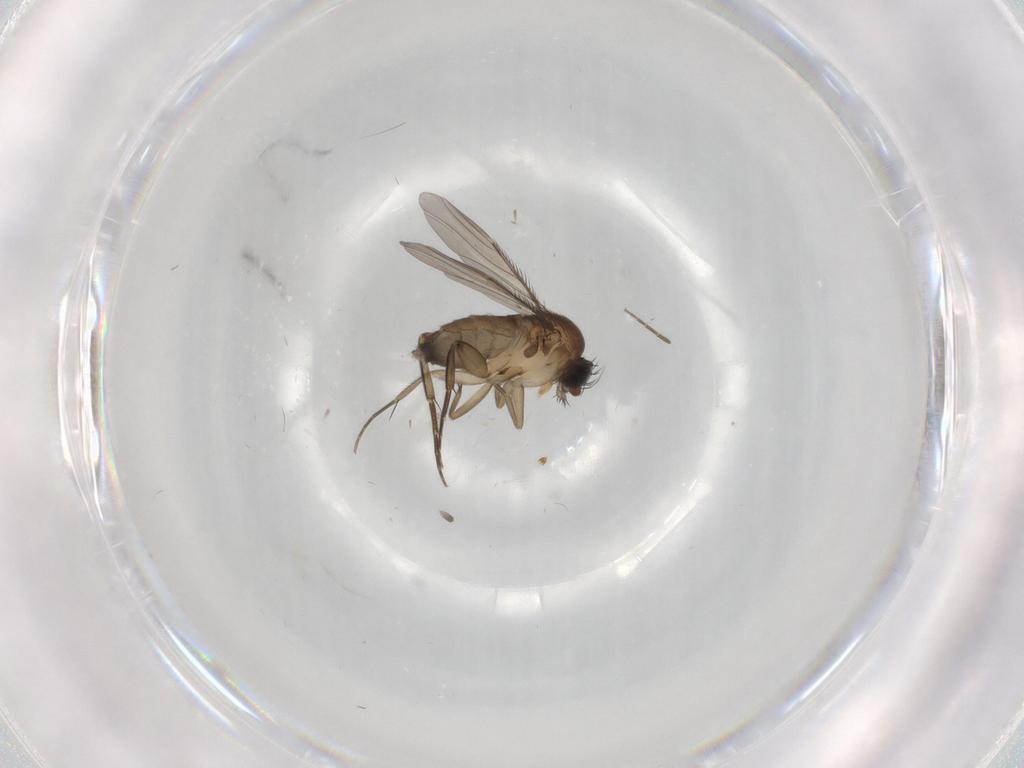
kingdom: Animalia
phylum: Arthropoda
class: Insecta
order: Diptera
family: Phoridae
